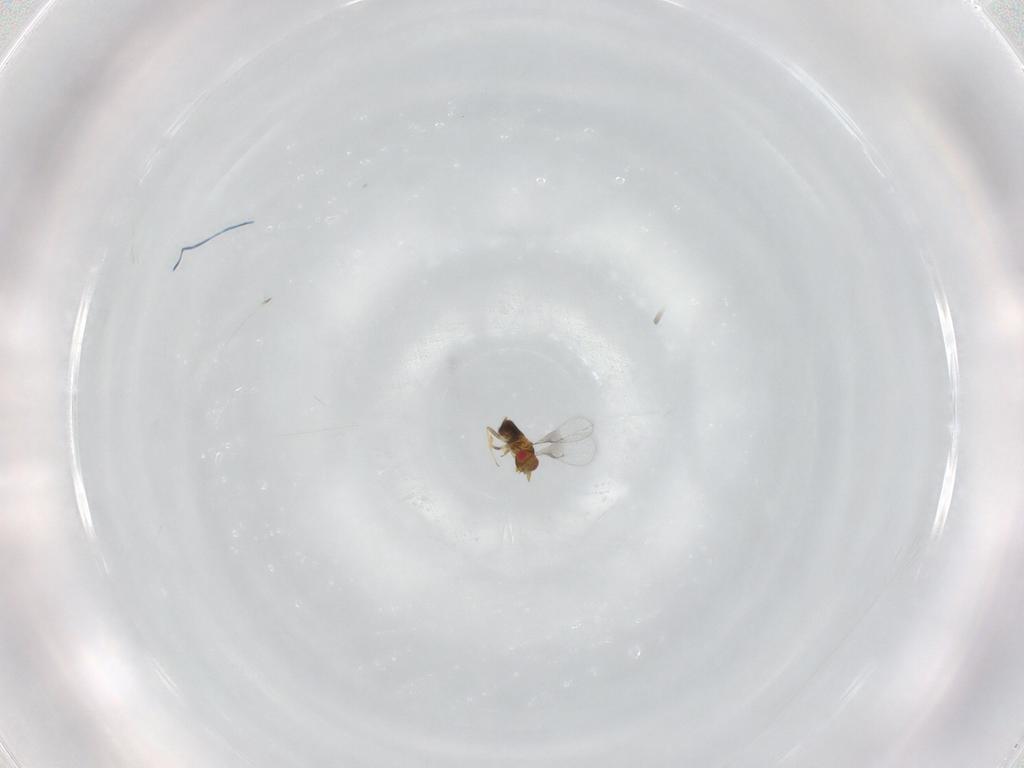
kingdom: Animalia
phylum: Arthropoda
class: Insecta
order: Hymenoptera
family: Trichogrammatidae
